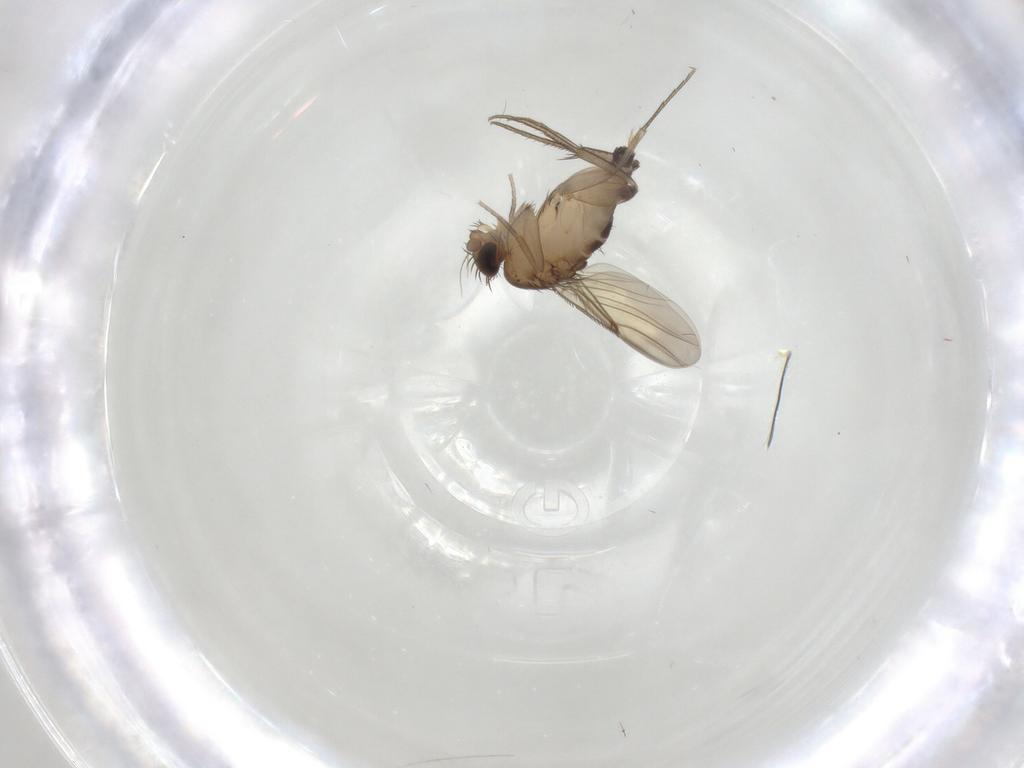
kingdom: Animalia
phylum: Arthropoda
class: Insecta
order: Diptera
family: Phoridae
